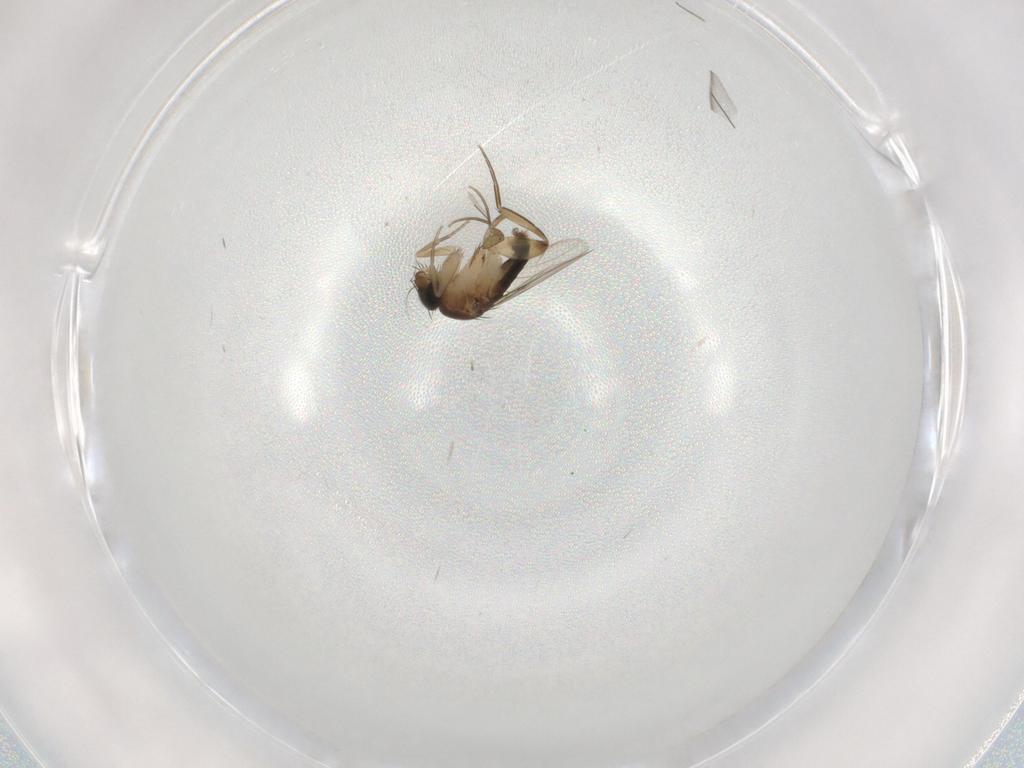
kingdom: Animalia
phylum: Arthropoda
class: Insecta
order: Diptera
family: Phoridae
